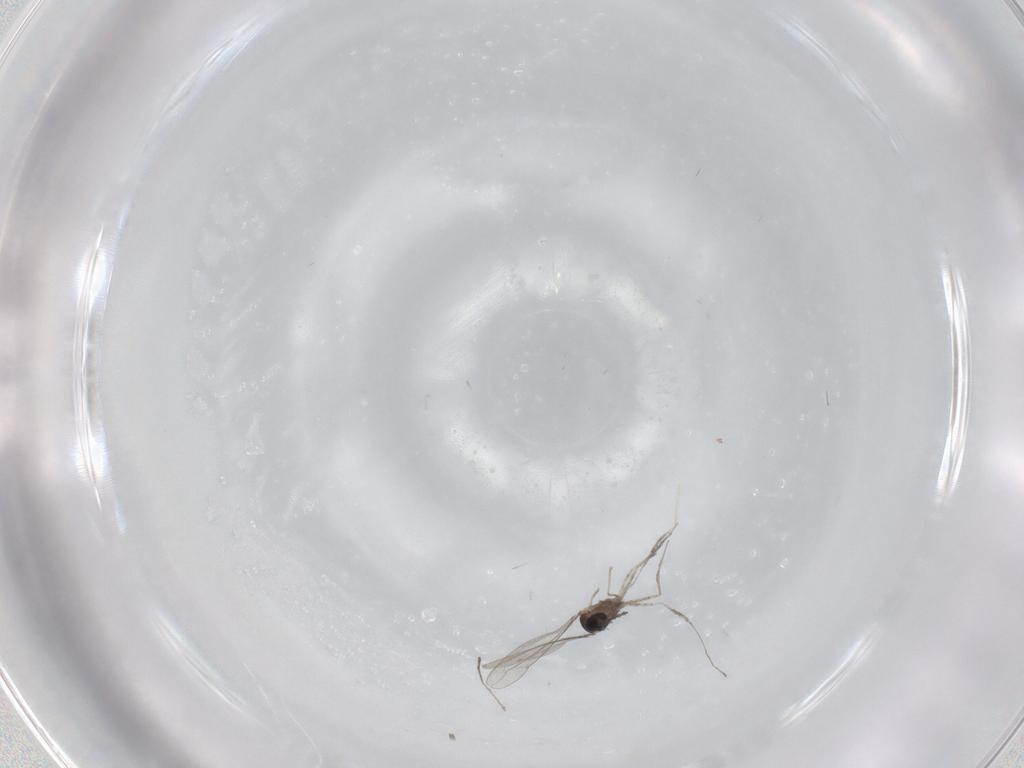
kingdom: Animalia
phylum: Arthropoda
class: Insecta
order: Diptera
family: Cecidomyiidae
